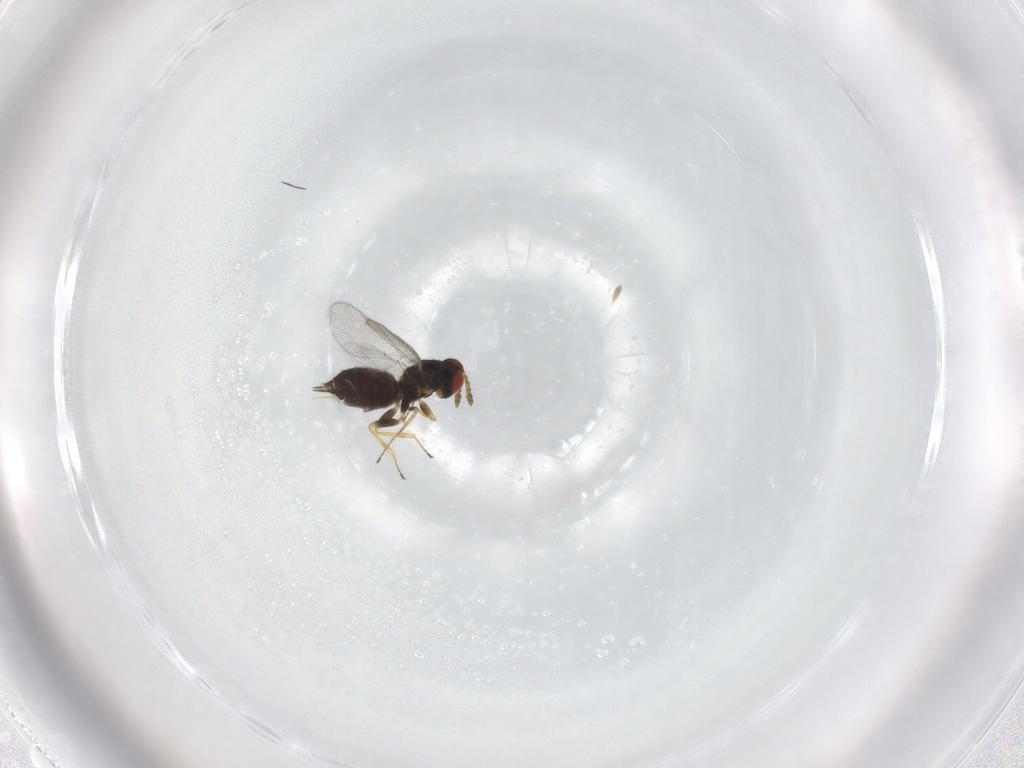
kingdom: Animalia
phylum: Arthropoda
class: Insecta
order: Hymenoptera
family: Eulophidae
